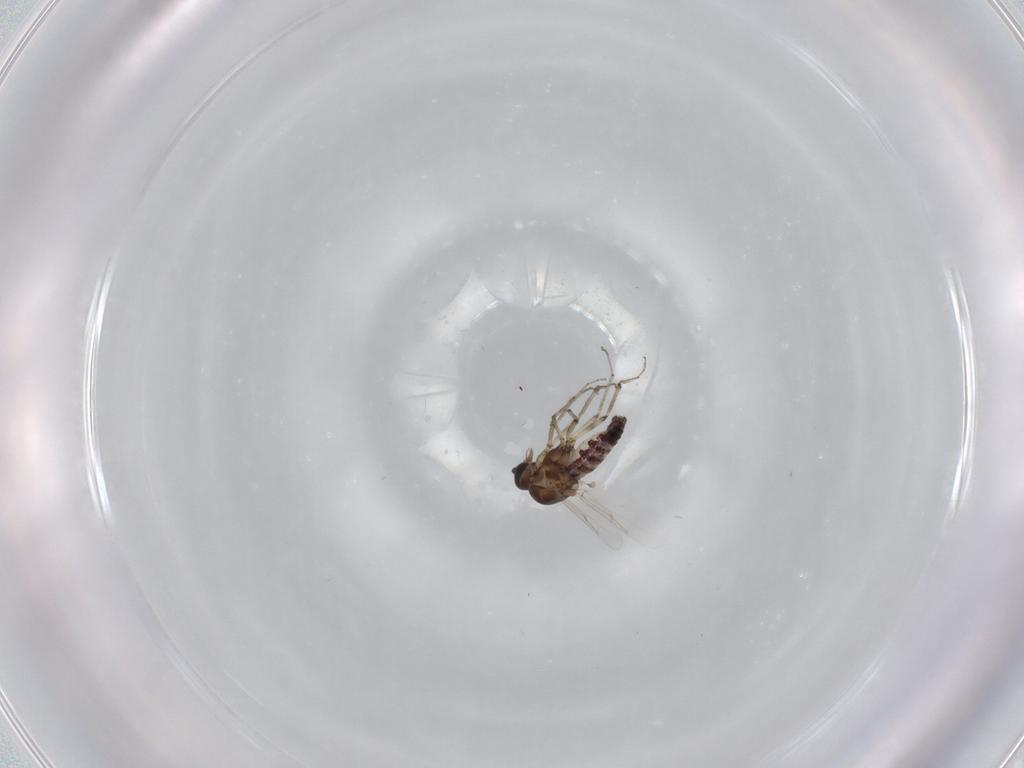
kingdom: Animalia
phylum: Arthropoda
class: Insecta
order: Diptera
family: Ceratopogonidae
